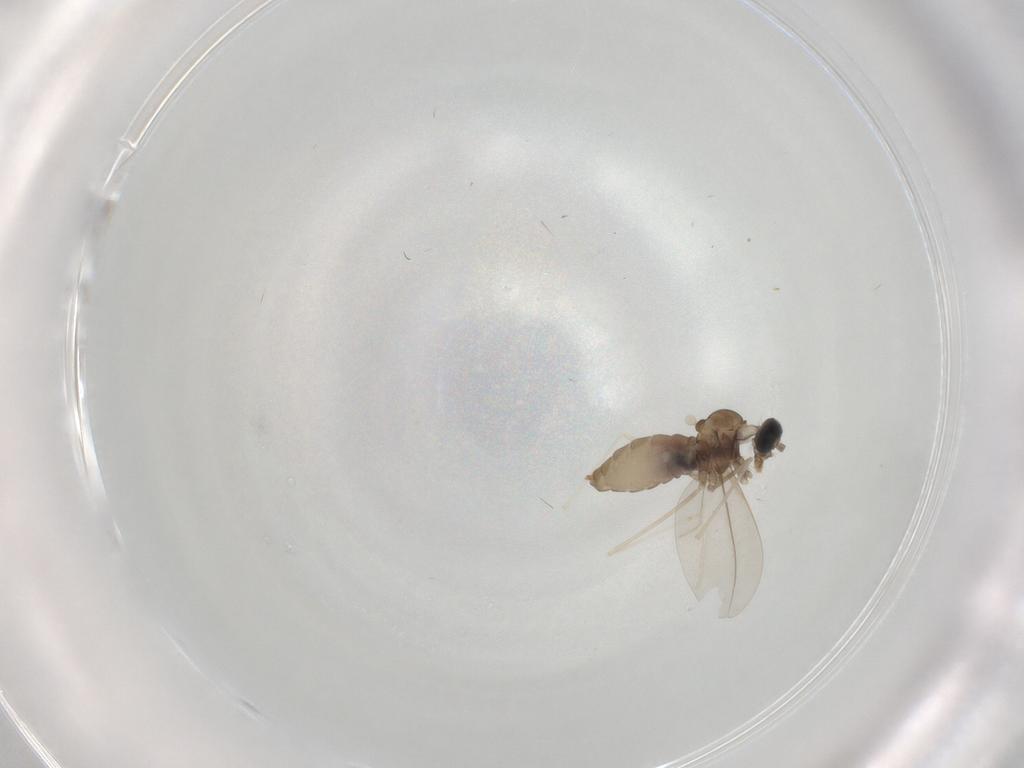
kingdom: Animalia
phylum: Arthropoda
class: Insecta
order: Diptera
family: Cecidomyiidae
